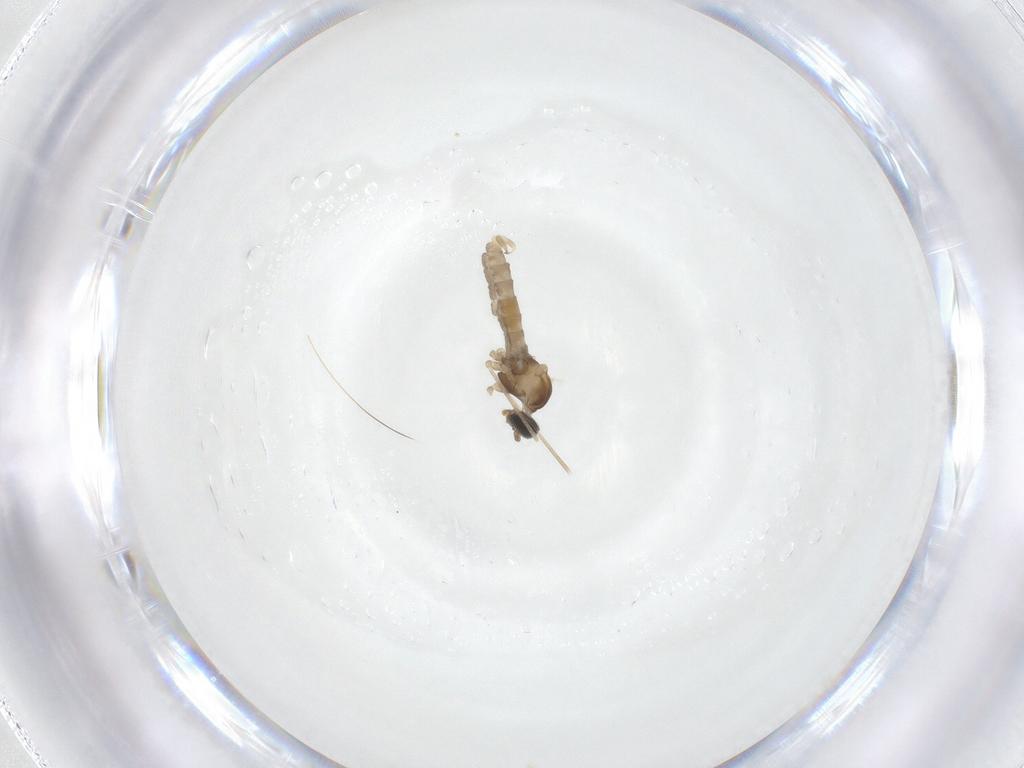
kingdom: Animalia
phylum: Arthropoda
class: Insecta
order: Diptera
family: Cecidomyiidae
